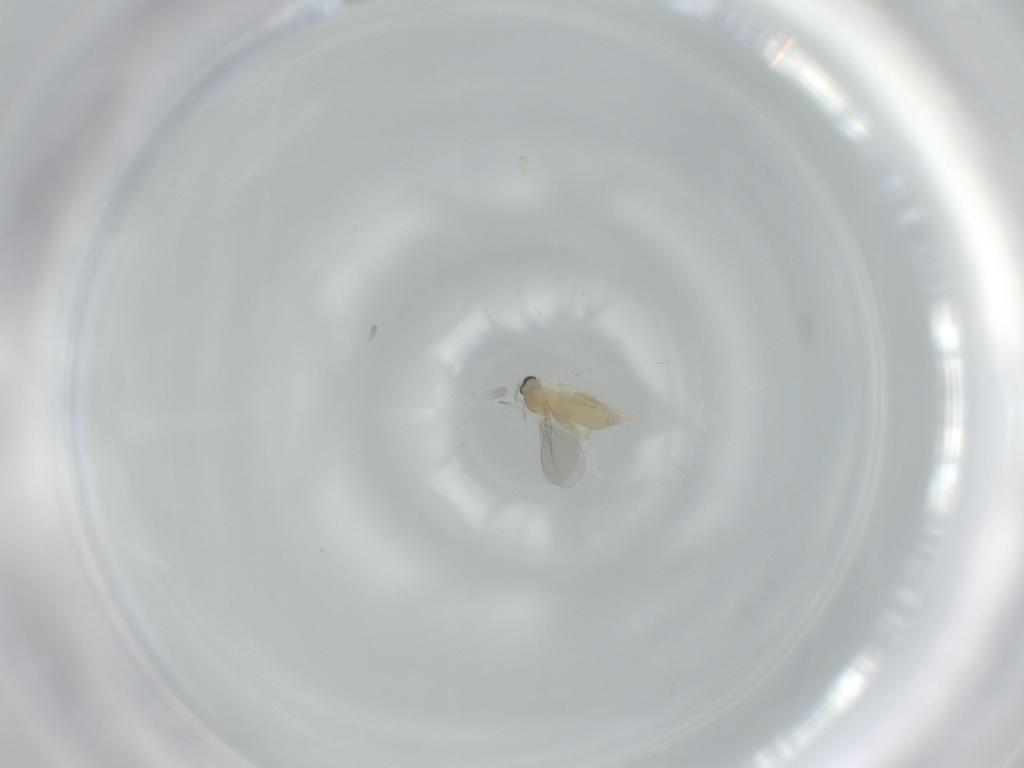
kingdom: Animalia
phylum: Arthropoda
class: Insecta
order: Diptera
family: Cecidomyiidae
